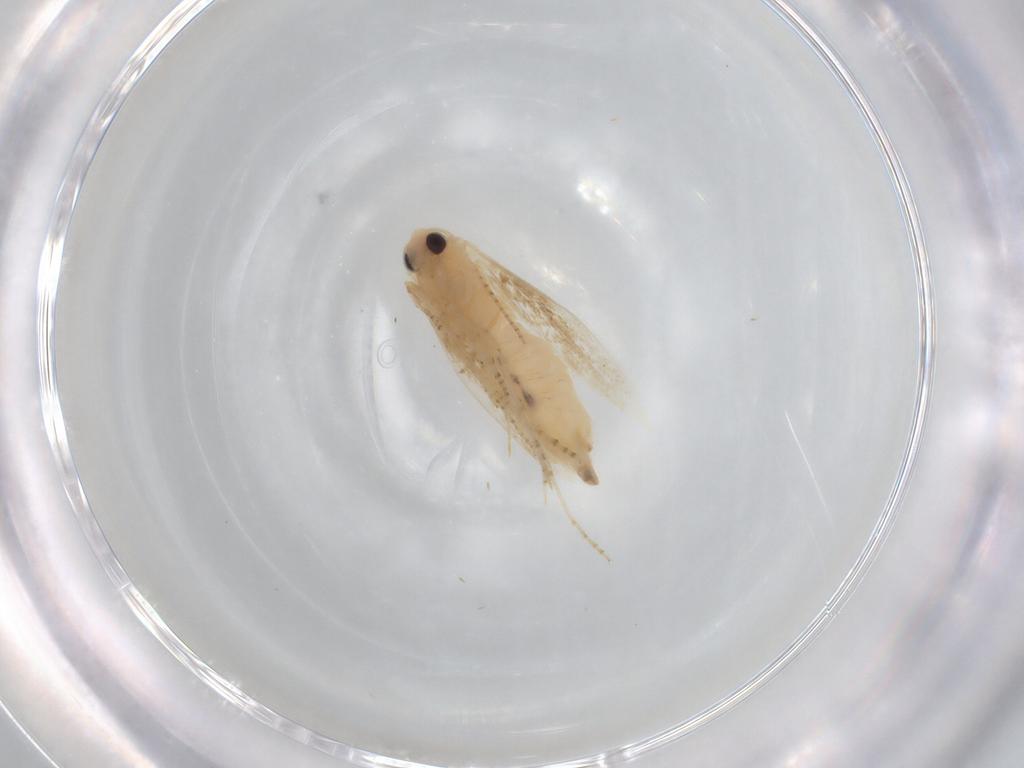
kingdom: Animalia
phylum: Arthropoda
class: Insecta
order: Lepidoptera
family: Bucculatricidae
